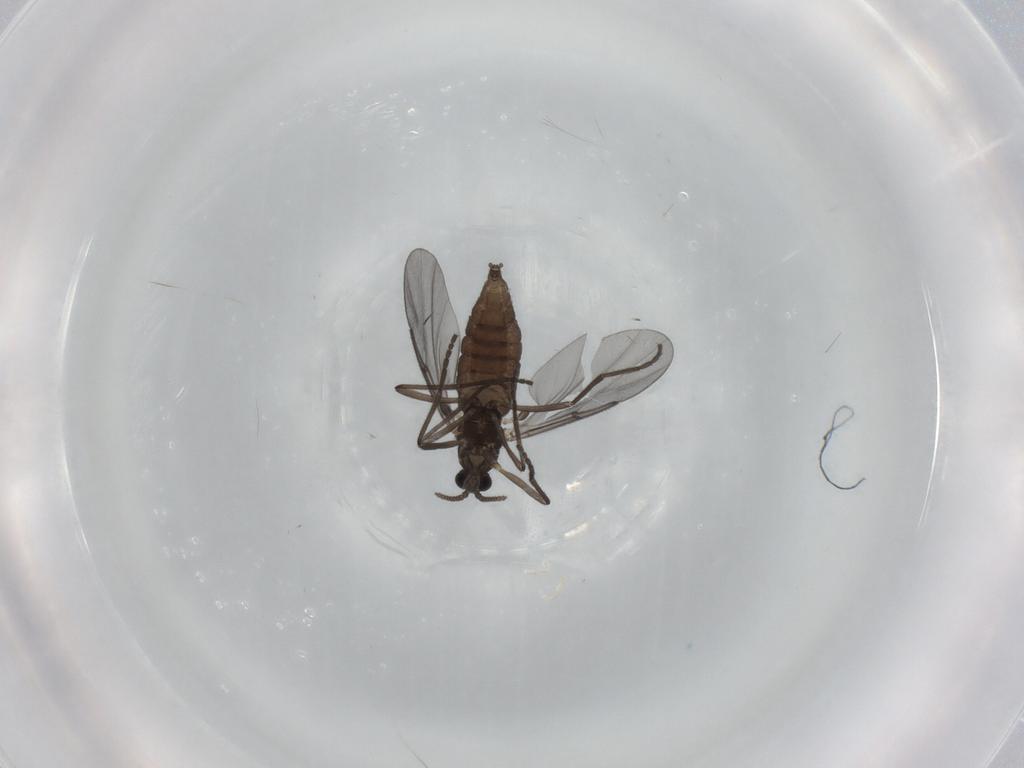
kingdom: Animalia
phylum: Arthropoda
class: Insecta
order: Diptera
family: Cecidomyiidae
